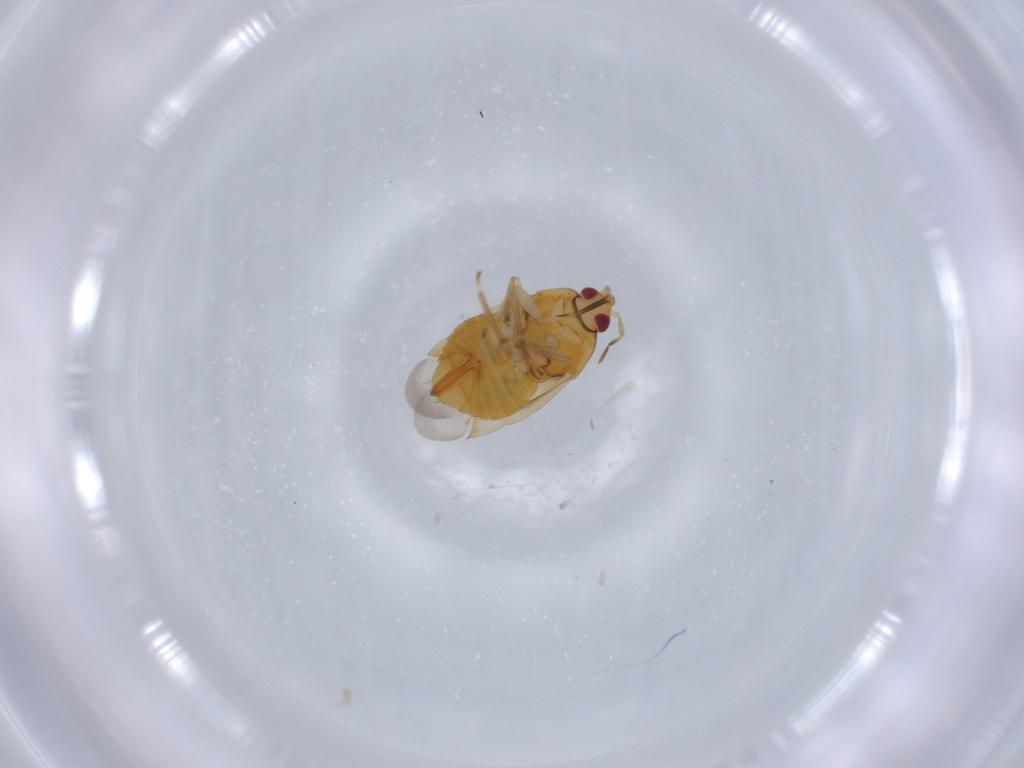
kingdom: Animalia
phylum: Arthropoda
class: Insecta
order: Hemiptera
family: Anthocoridae
